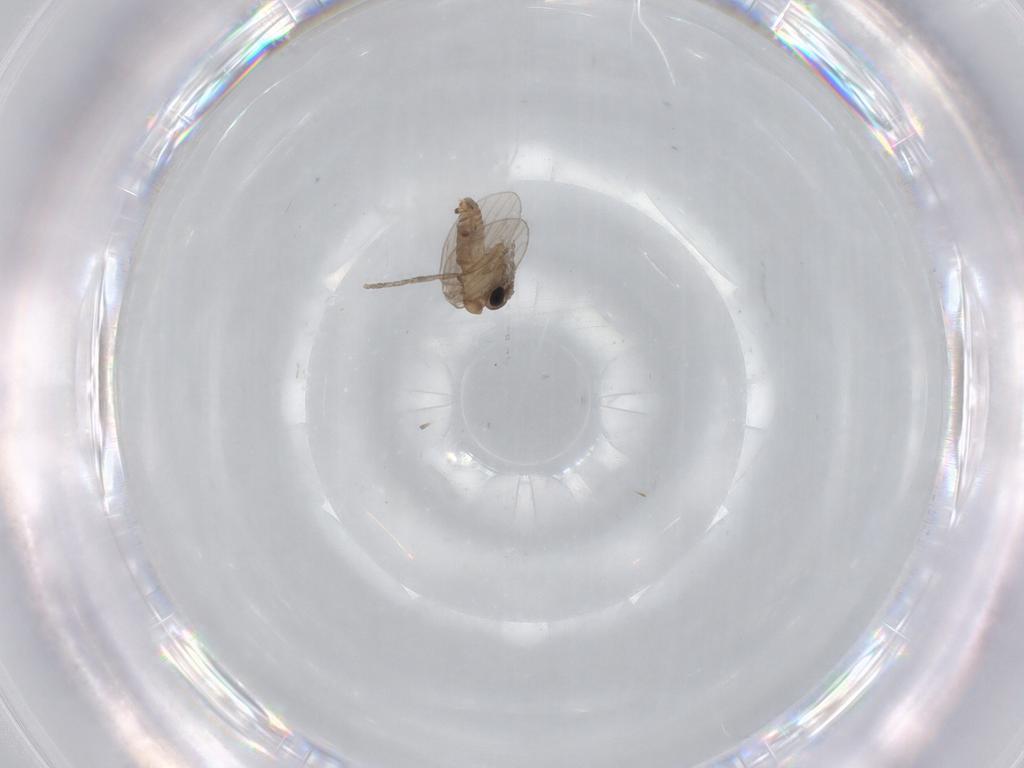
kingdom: Animalia
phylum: Arthropoda
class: Insecta
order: Diptera
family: Psychodidae
